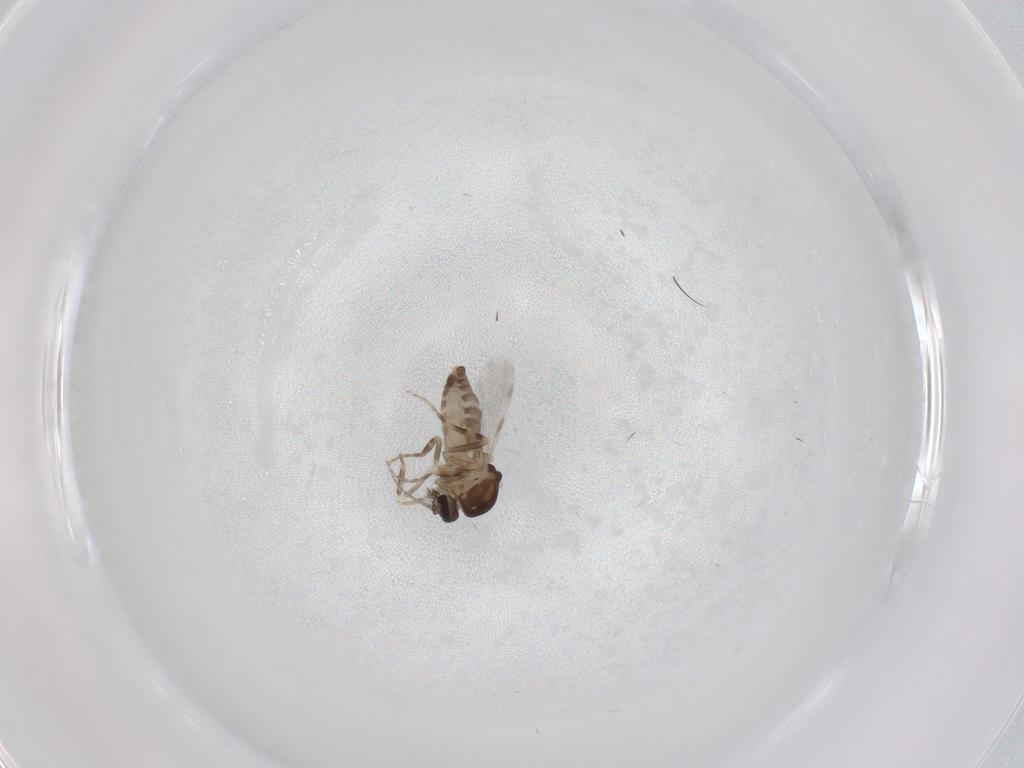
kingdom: Animalia
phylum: Arthropoda
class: Insecta
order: Diptera
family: Ceratopogonidae
